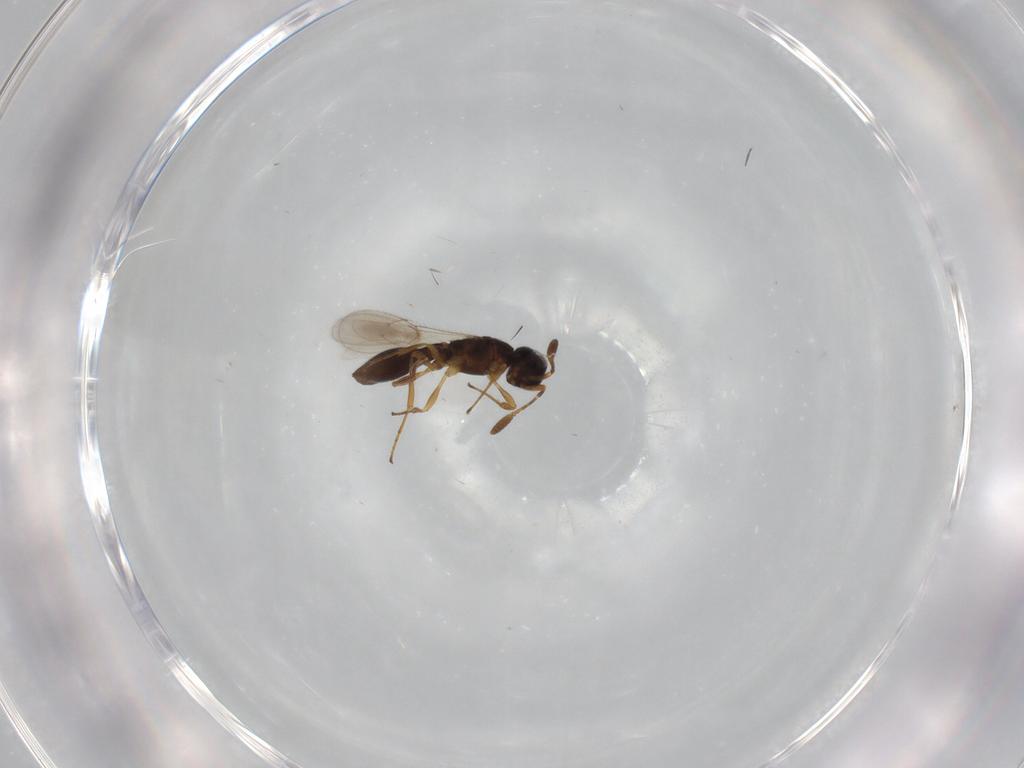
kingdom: Animalia
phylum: Arthropoda
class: Insecta
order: Hymenoptera
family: Scelionidae
